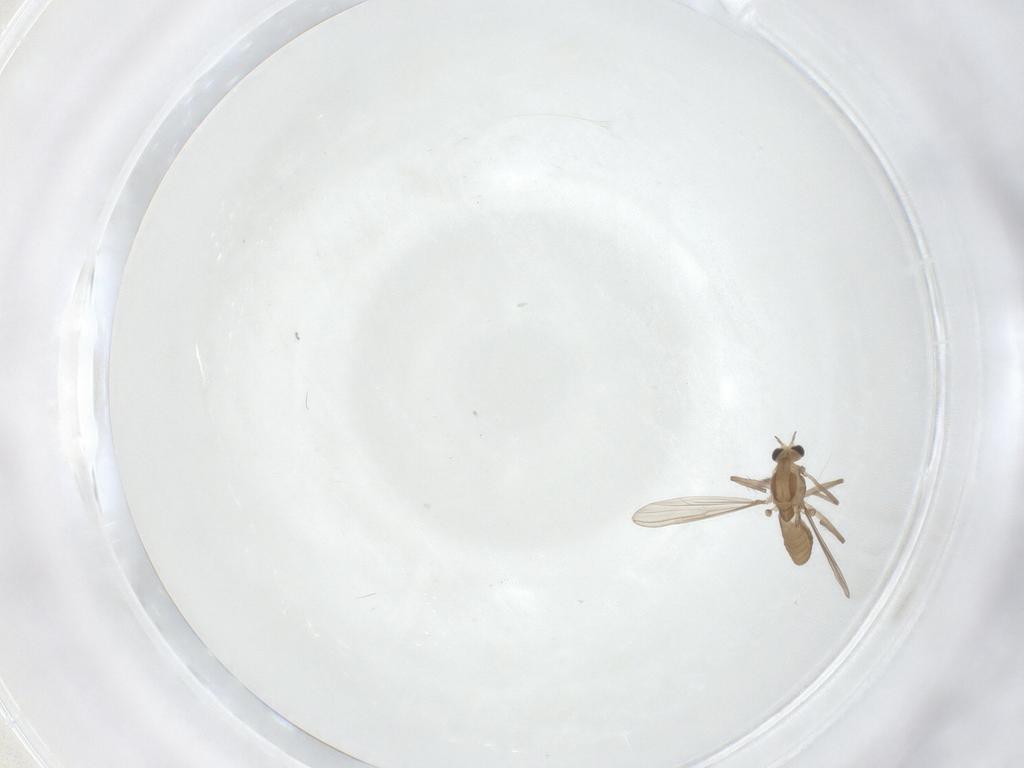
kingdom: Animalia
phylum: Arthropoda
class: Insecta
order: Diptera
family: Chironomidae
